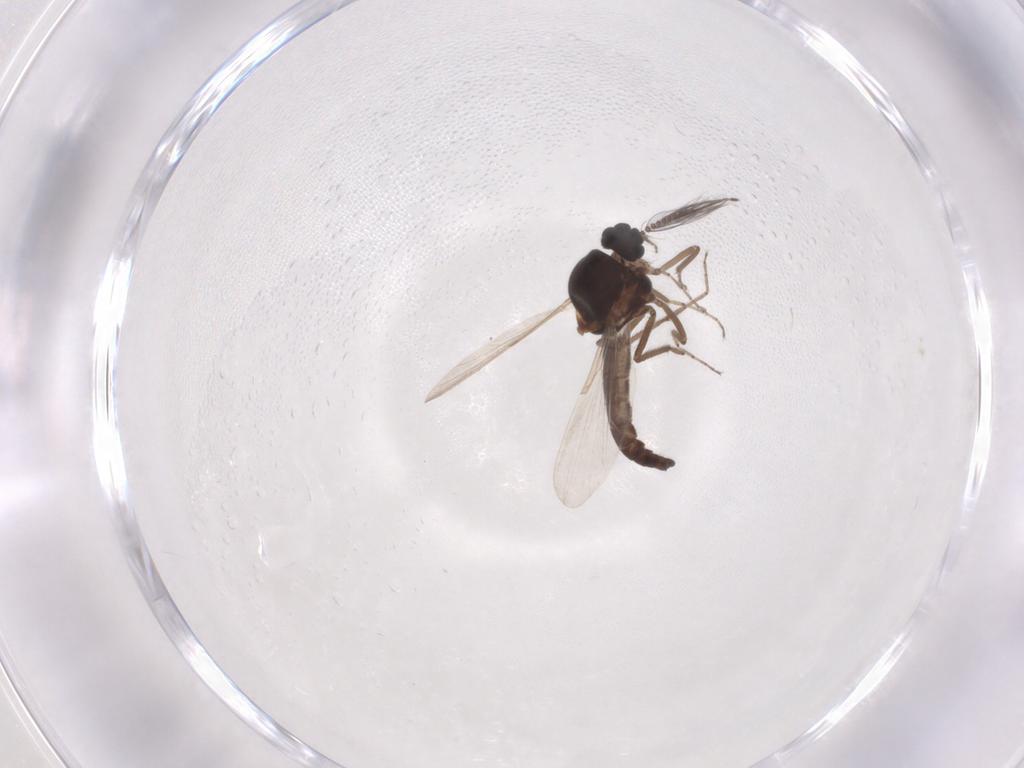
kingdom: Animalia
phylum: Arthropoda
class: Insecta
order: Diptera
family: Ceratopogonidae
